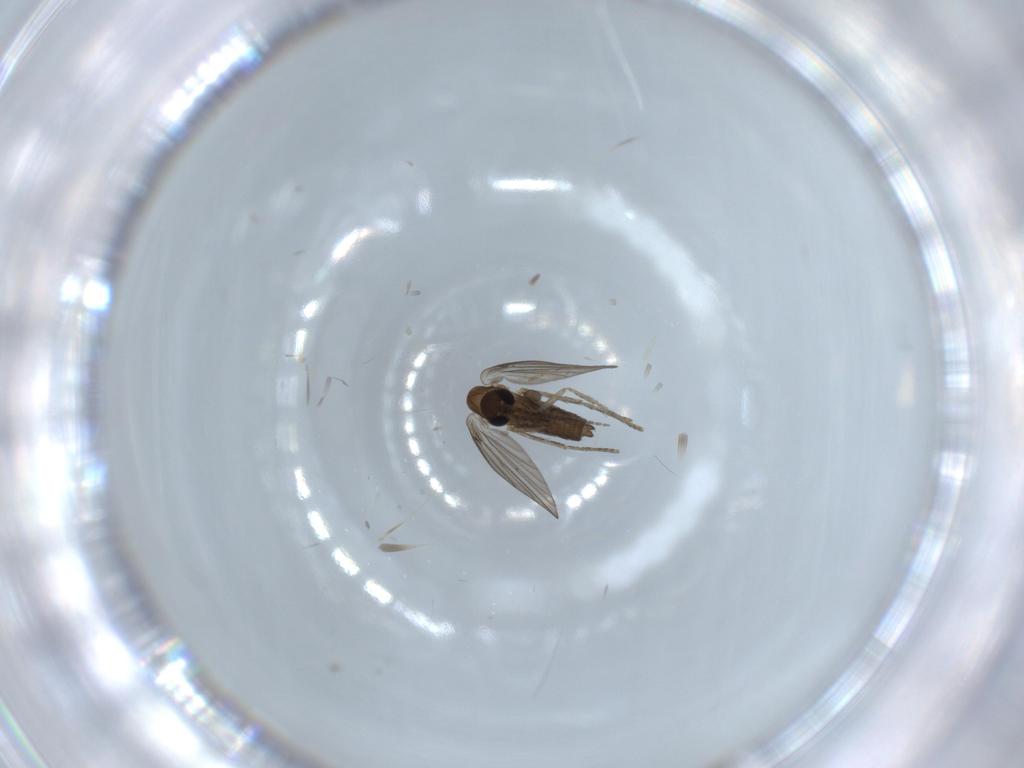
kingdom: Animalia
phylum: Arthropoda
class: Insecta
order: Diptera
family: Psychodidae
